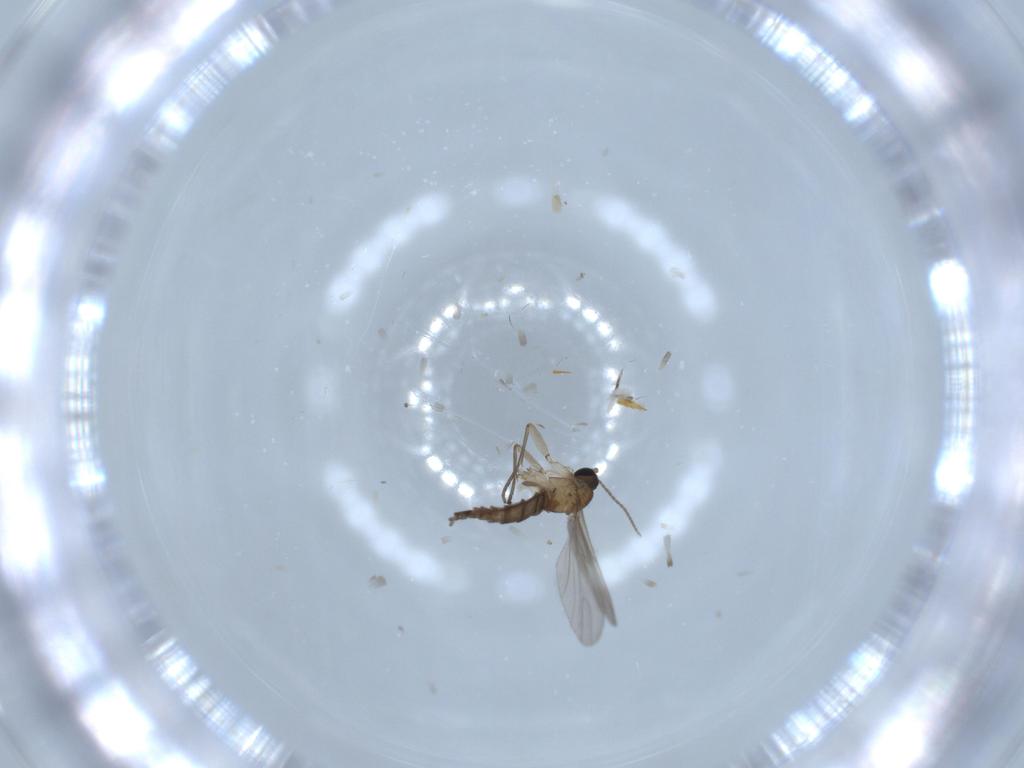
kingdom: Animalia
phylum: Arthropoda
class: Insecta
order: Diptera
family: Sciaridae
